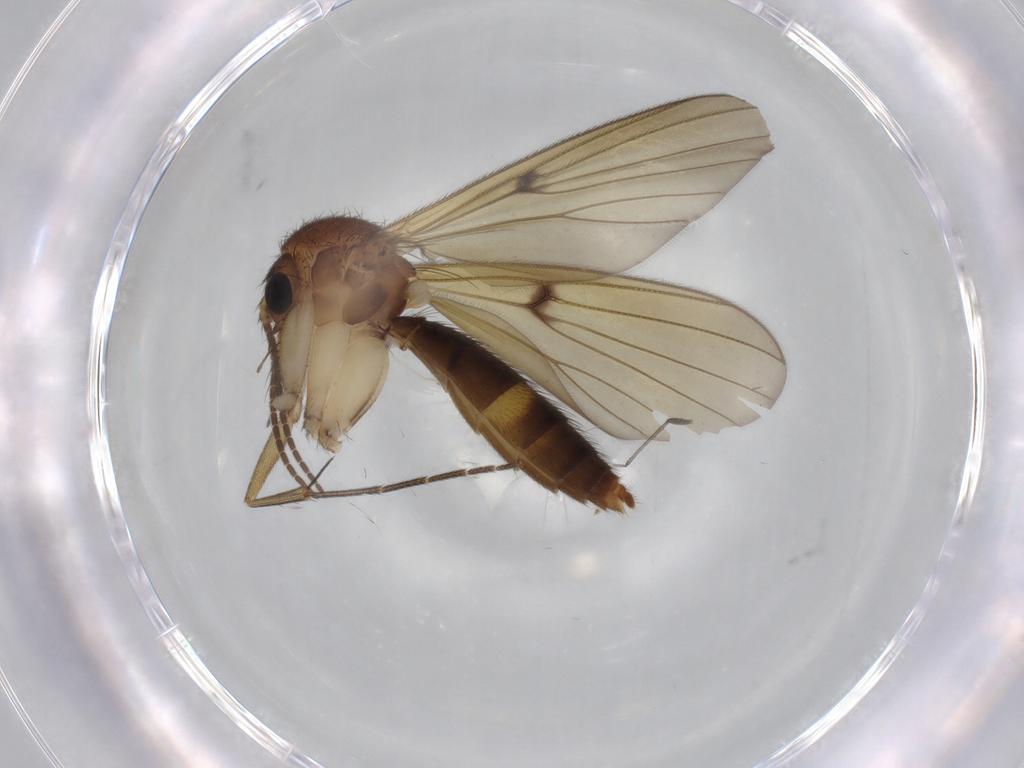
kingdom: Animalia
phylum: Arthropoda
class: Insecta
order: Diptera
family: Mycetophilidae
